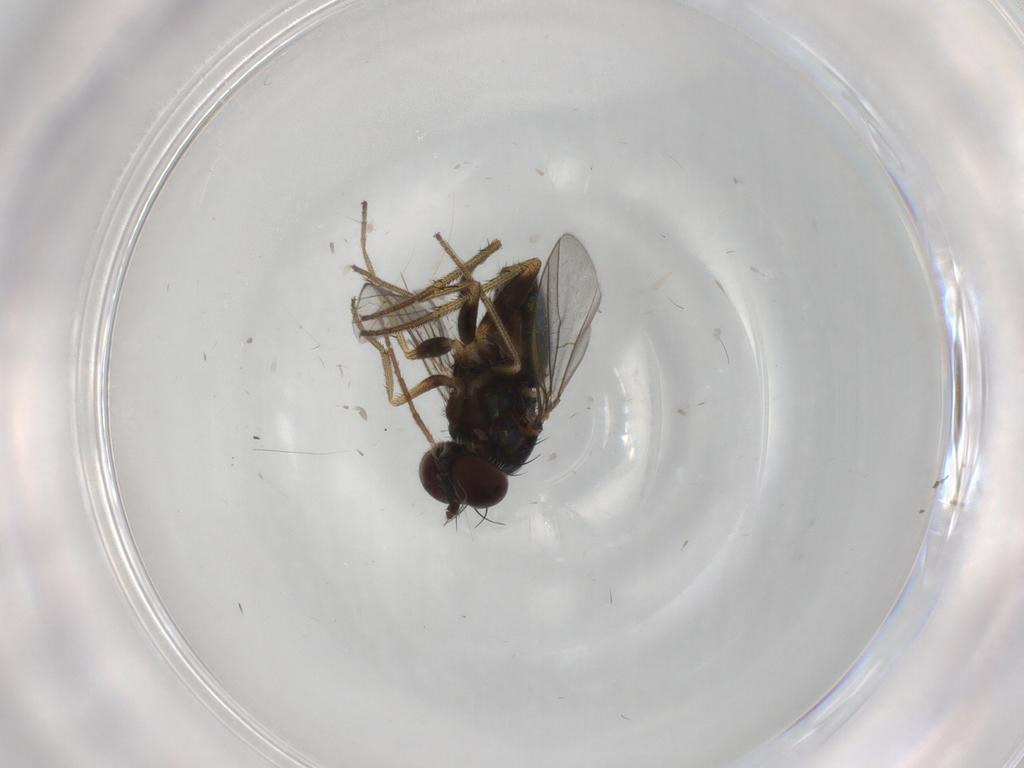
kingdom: Animalia
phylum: Arthropoda
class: Insecta
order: Diptera
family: Dolichopodidae
